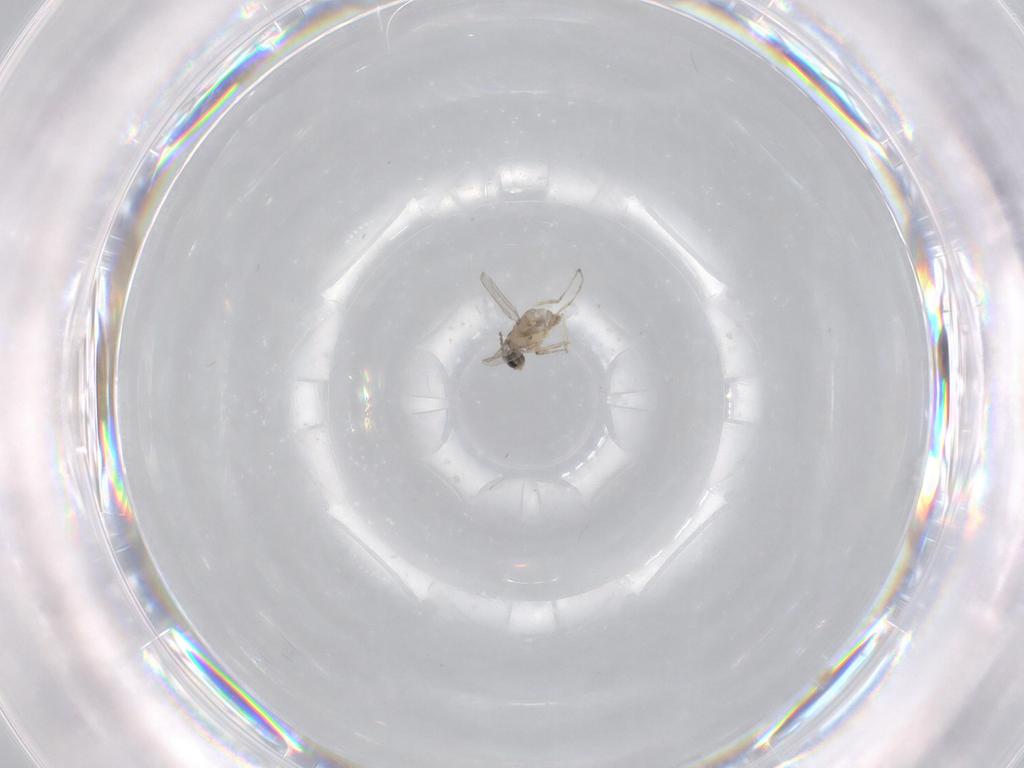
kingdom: Animalia
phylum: Arthropoda
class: Insecta
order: Diptera
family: Cecidomyiidae
